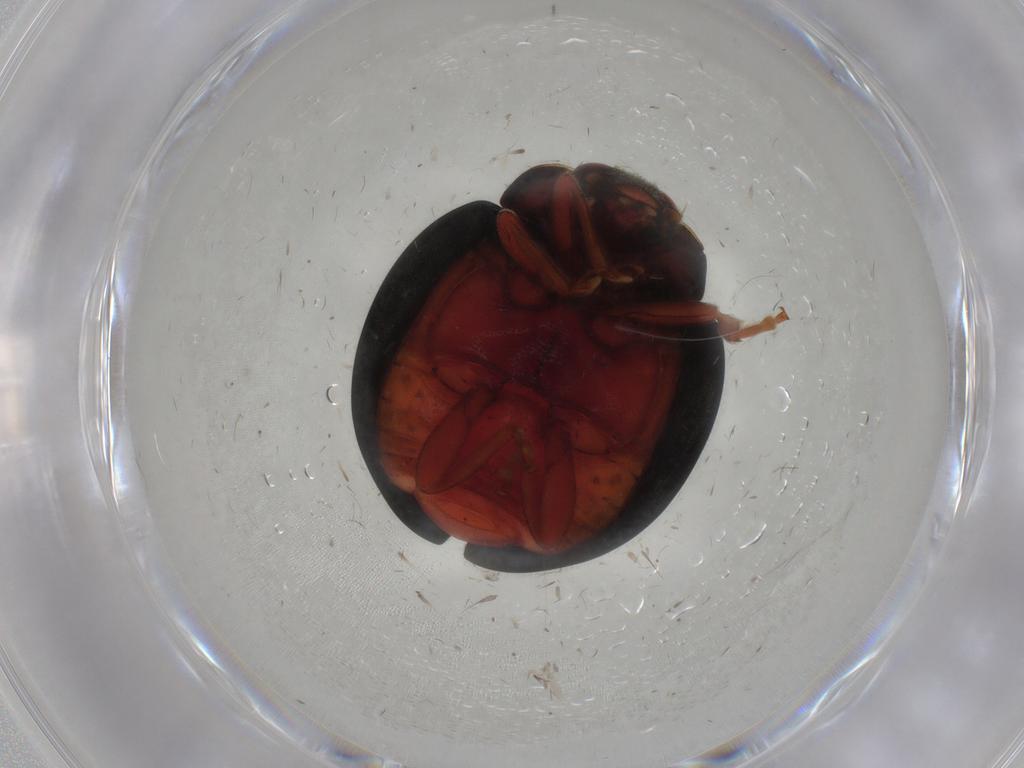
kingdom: Animalia
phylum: Arthropoda
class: Insecta
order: Coleoptera
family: Coccinellidae
